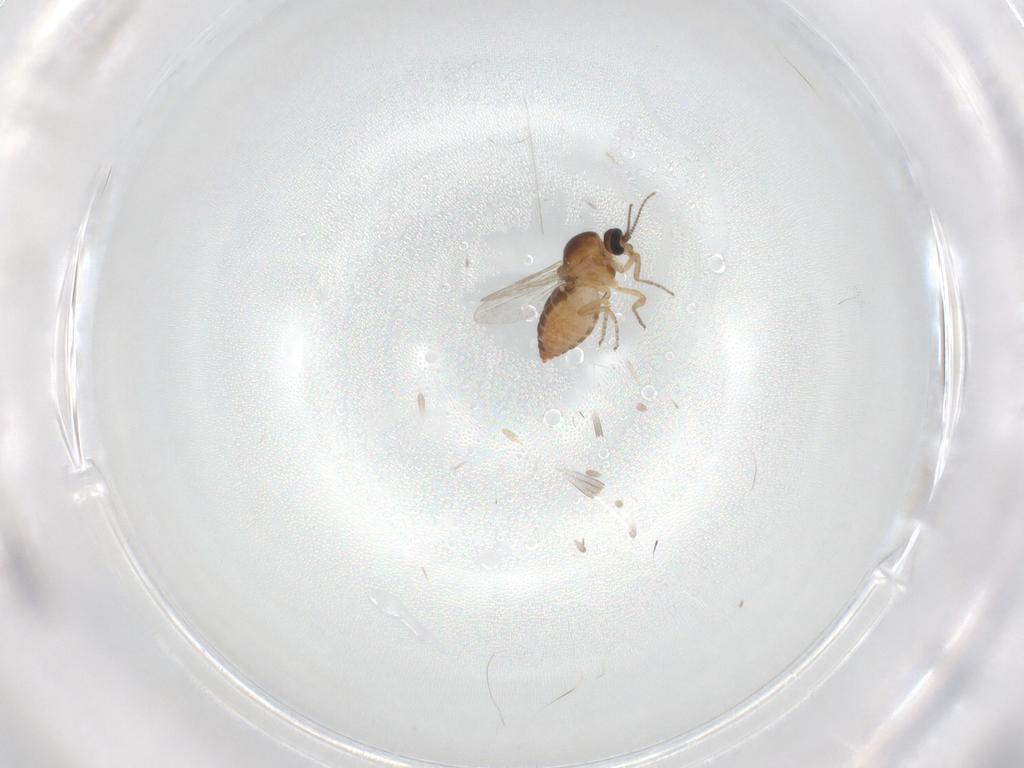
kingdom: Animalia
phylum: Arthropoda
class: Insecta
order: Diptera
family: Ceratopogonidae
